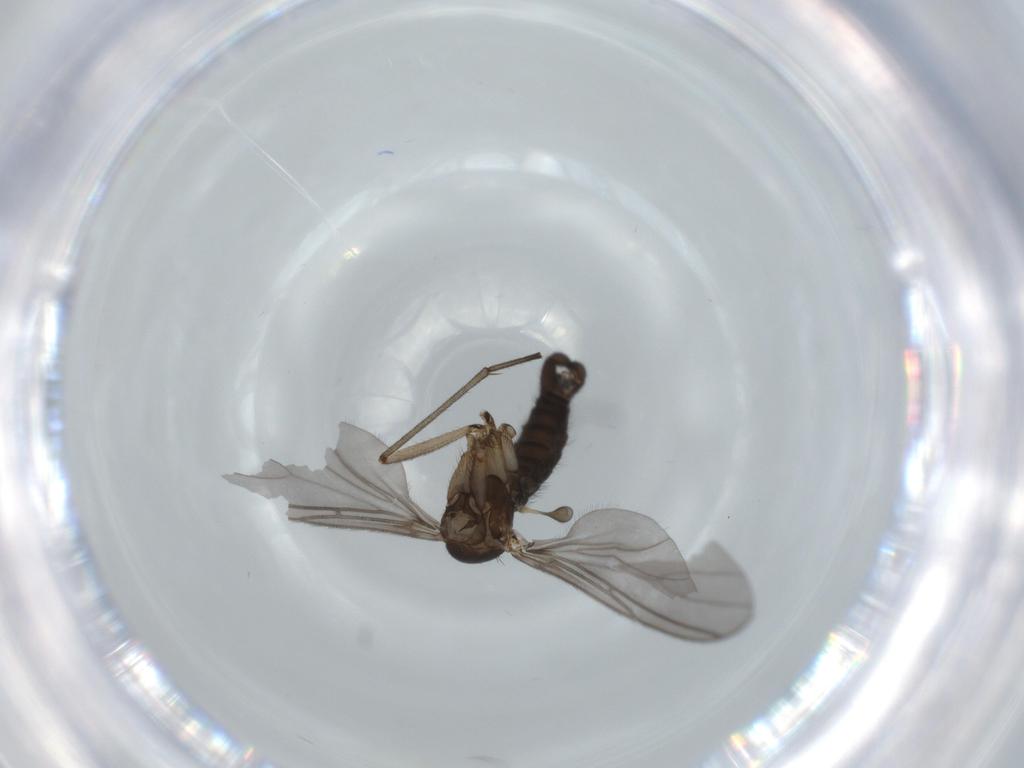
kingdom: Animalia
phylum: Arthropoda
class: Insecta
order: Diptera
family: Sciaridae
